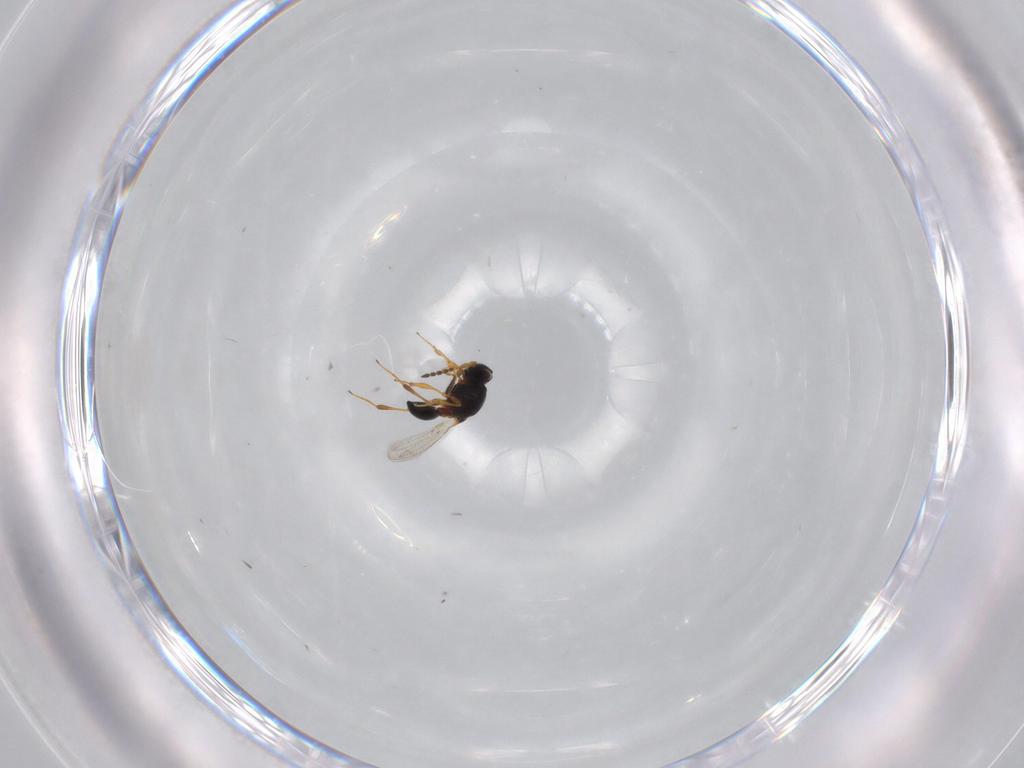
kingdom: Animalia
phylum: Arthropoda
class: Insecta
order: Hymenoptera
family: Platygastridae
